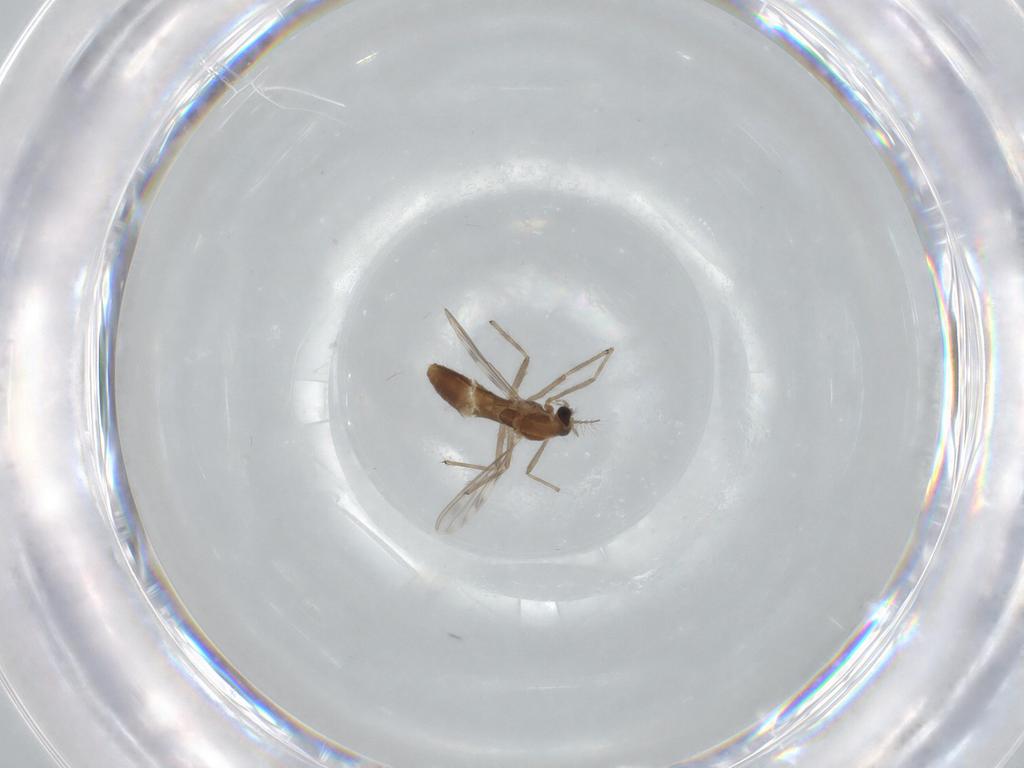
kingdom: Animalia
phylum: Arthropoda
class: Insecta
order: Diptera
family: Chironomidae
